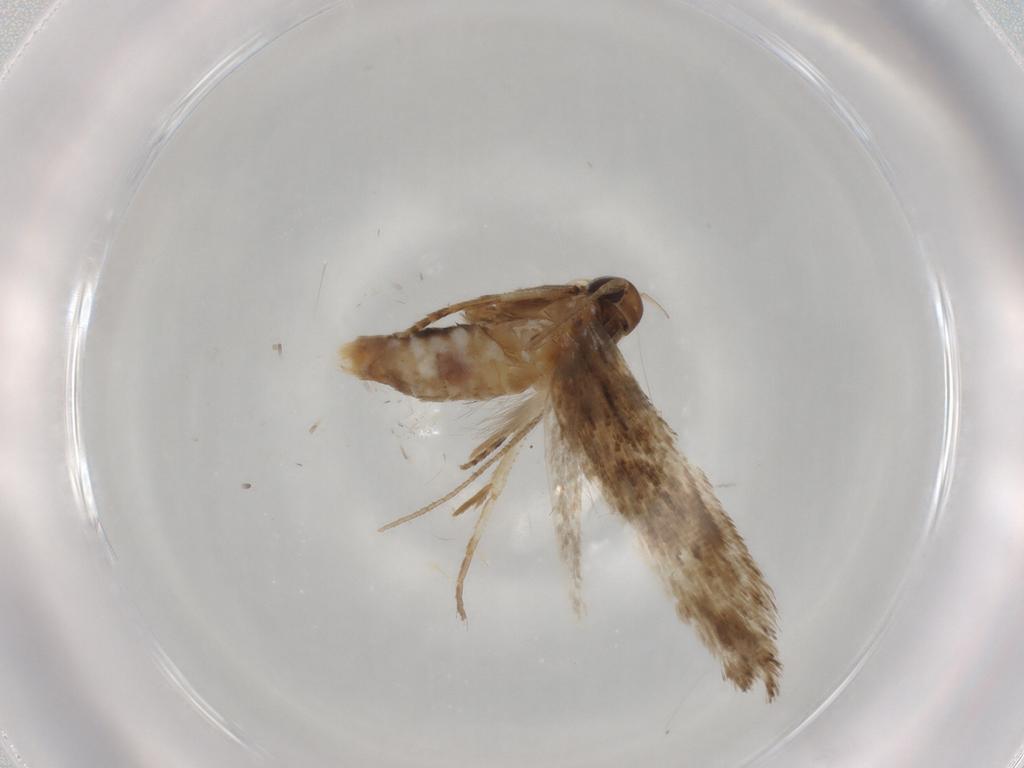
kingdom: Animalia
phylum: Arthropoda
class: Insecta
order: Lepidoptera
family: Cosmopterigidae
